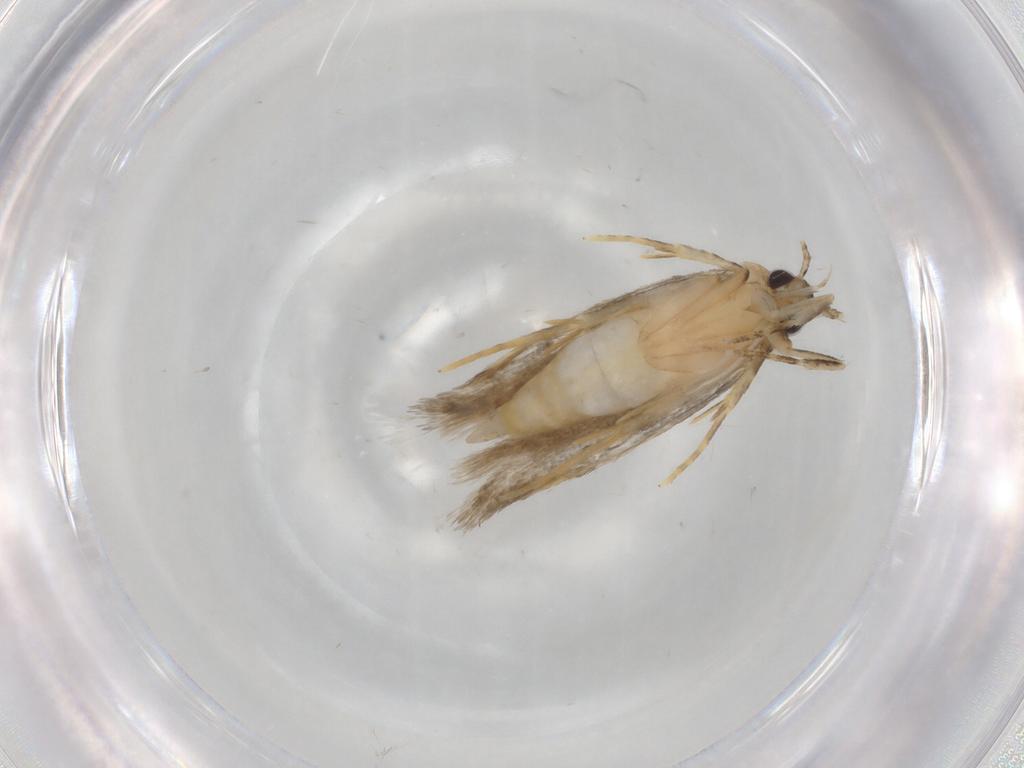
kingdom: Animalia
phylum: Arthropoda
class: Insecta
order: Lepidoptera
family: Autostichidae
